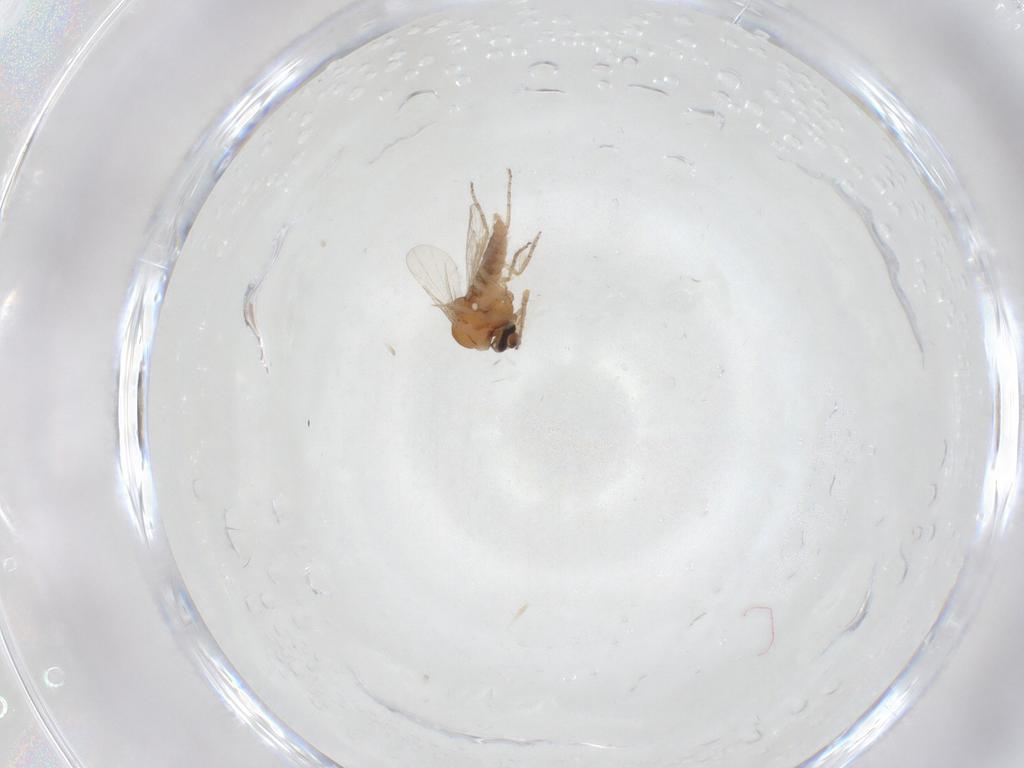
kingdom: Animalia
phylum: Arthropoda
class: Insecta
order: Diptera
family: Ceratopogonidae
